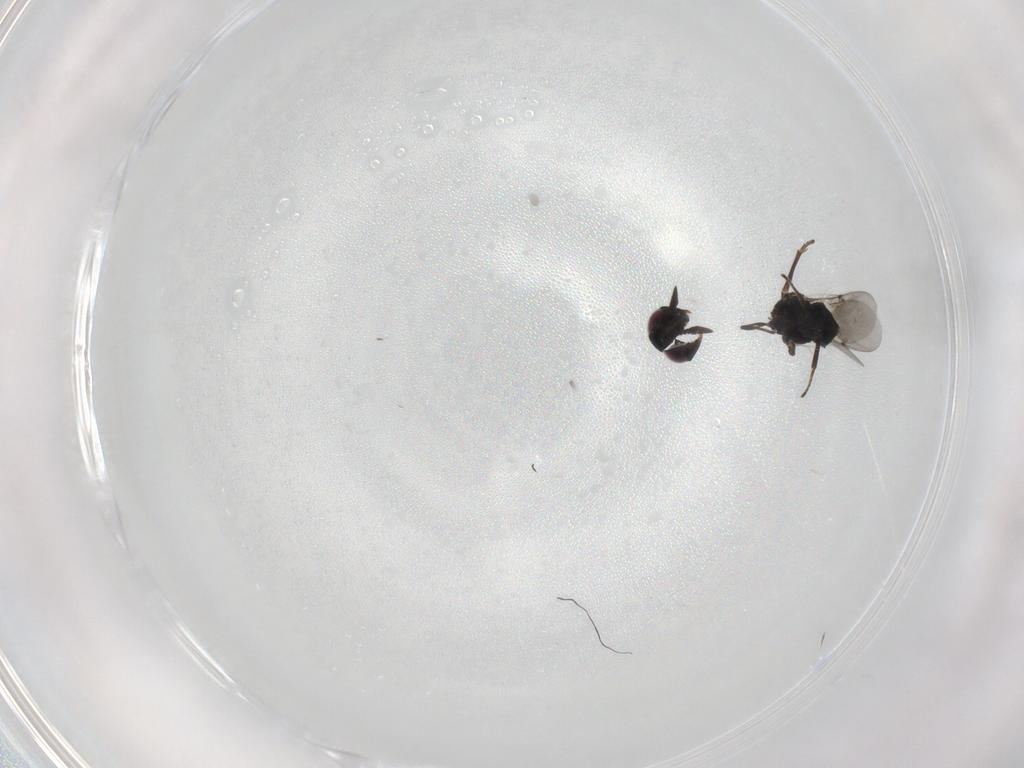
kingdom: Animalia
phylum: Arthropoda
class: Insecta
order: Hymenoptera
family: Encyrtidae
